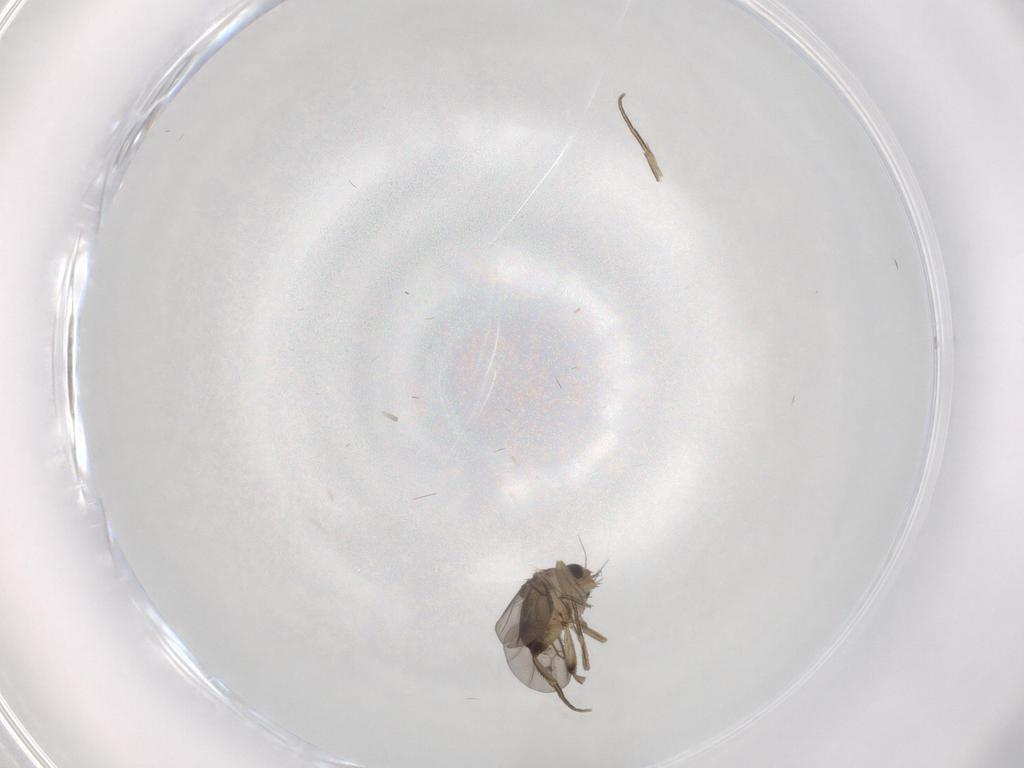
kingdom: Animalia
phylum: Arthropoda
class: Insecta
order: Diptera
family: Phoridae
